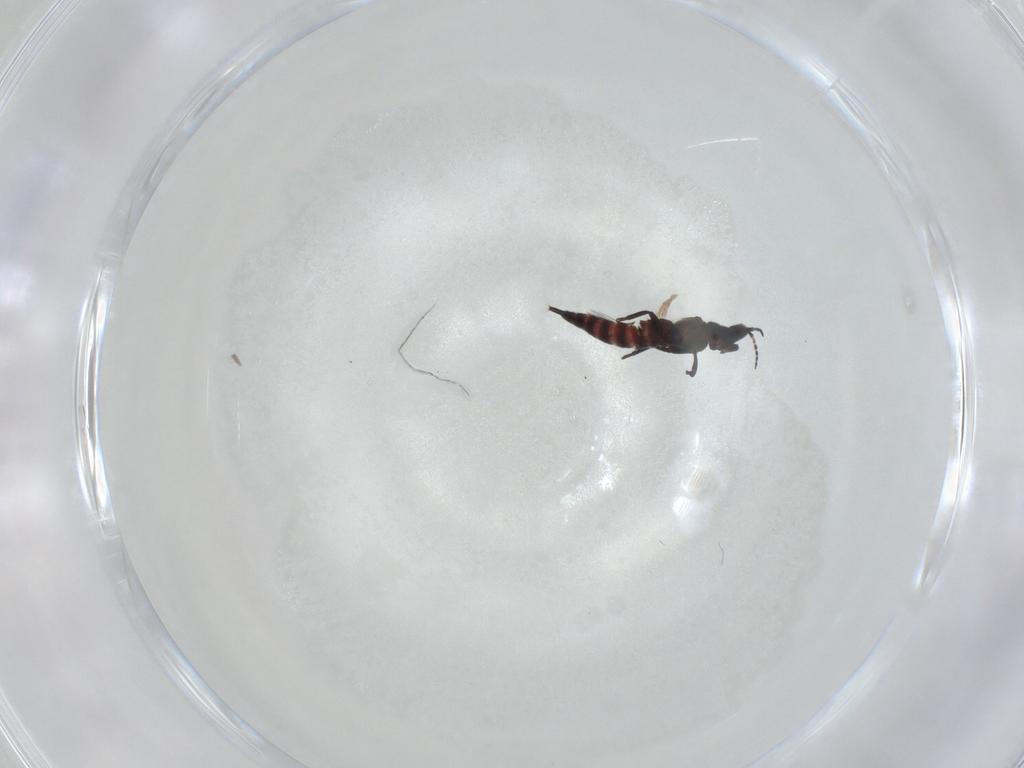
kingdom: Animalia
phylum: Arthropoda
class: Insecta
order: Thysanoptera
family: Phlaeothripidae
